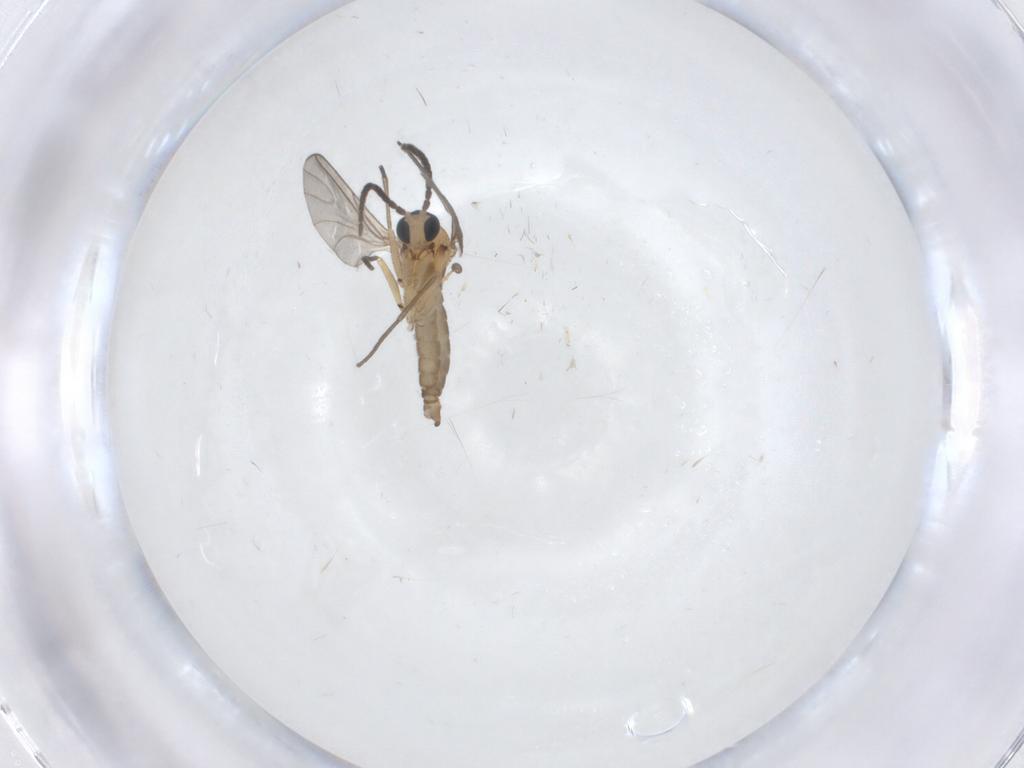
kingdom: Animalia
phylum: Arthropoda
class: Insecta
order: Diptera
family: Sciaridae
